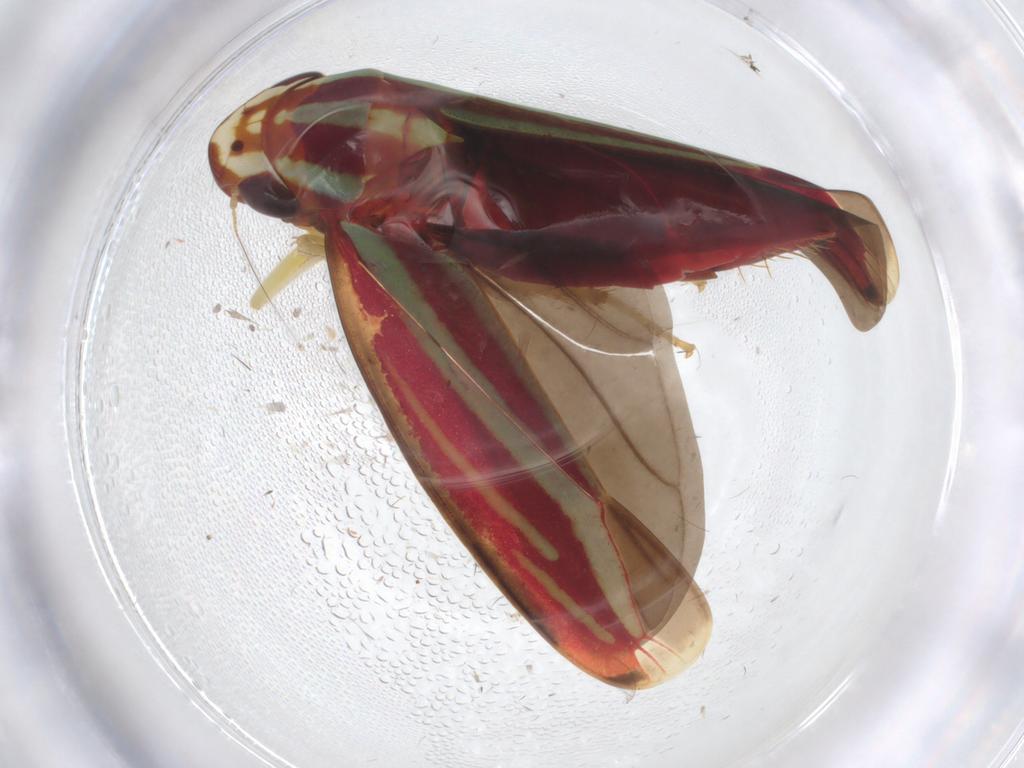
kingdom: Animalia
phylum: Arthropoda
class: Insecta
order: Hemiptera
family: Cicadellidae
